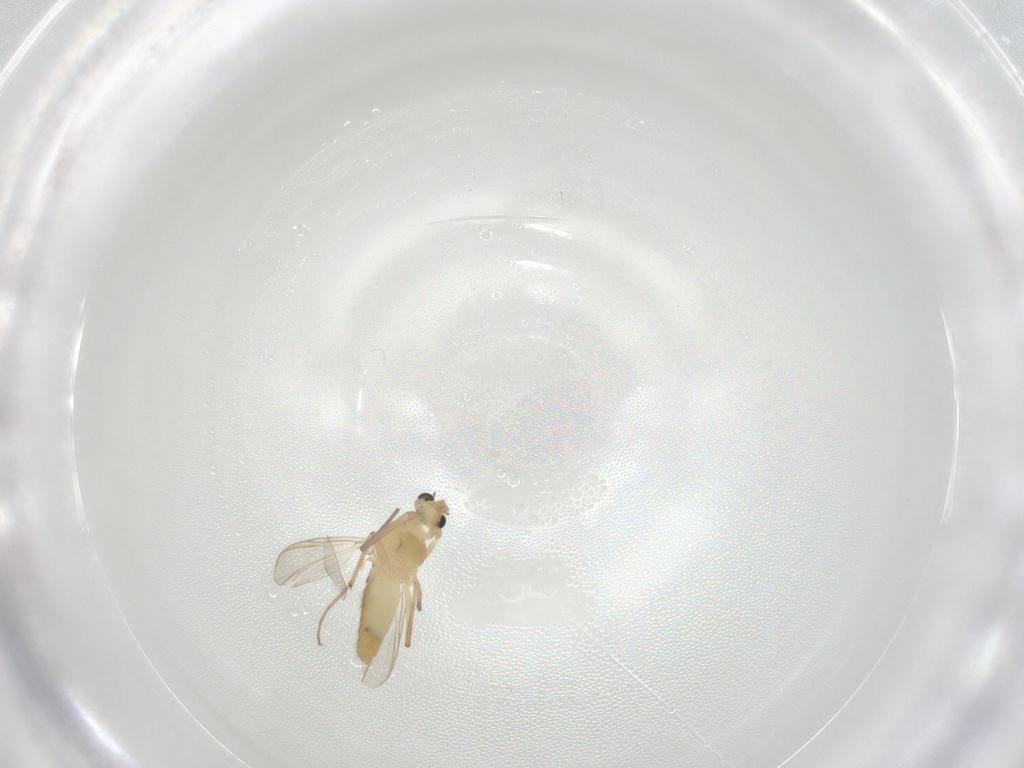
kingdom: Animalia
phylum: Arthropoda
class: Insecta
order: Diptera
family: Chironomidae
